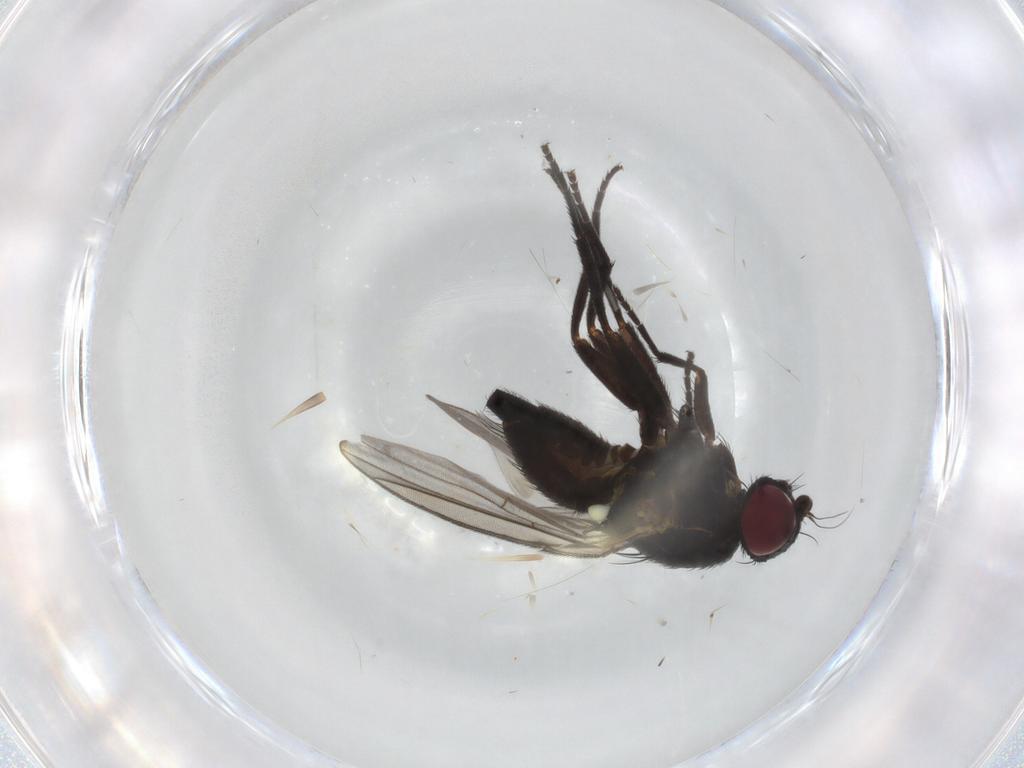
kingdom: Animalia
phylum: Arthropoda
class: Insecta
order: Diptera
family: Agromyzidae
